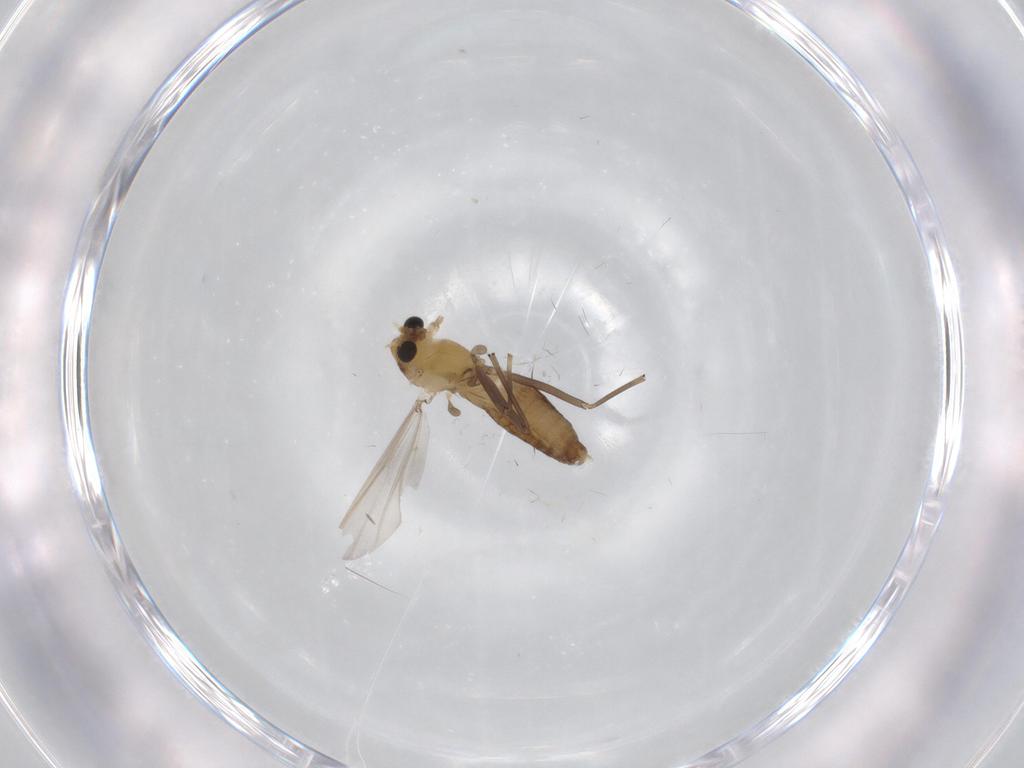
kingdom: Animalia
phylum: Arthropoda
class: Insecta
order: Diptera
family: Chironomidae
